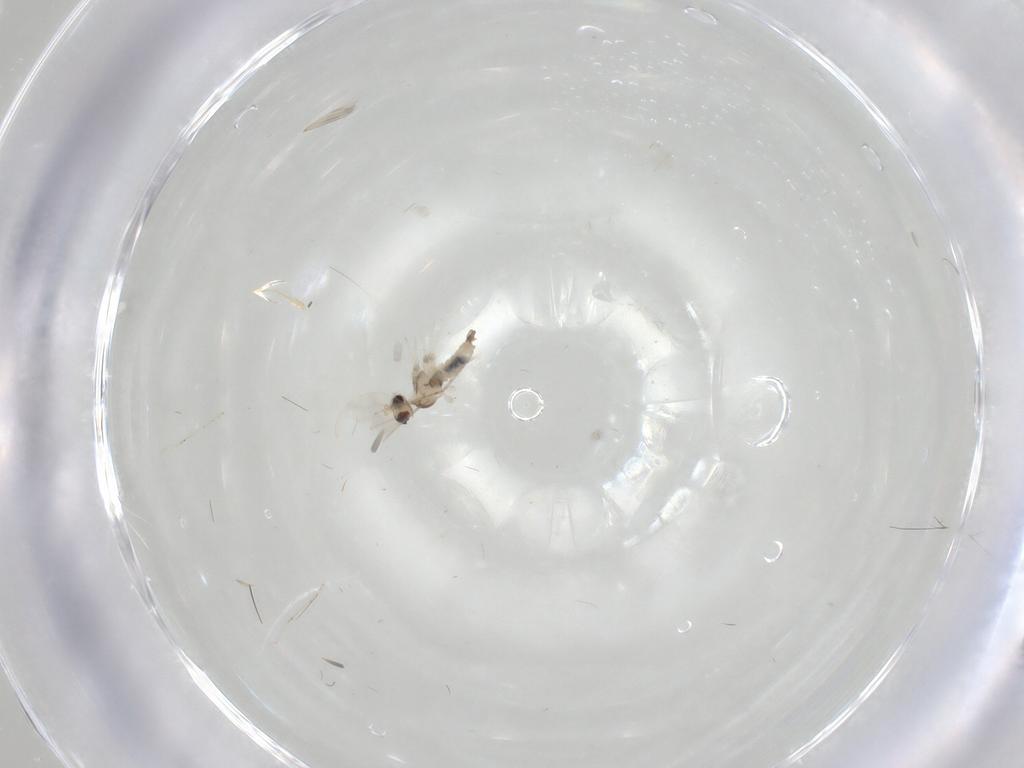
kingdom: Animalia
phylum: Arthropoda
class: Insecta
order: Diptera
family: Cecidomyiidae
